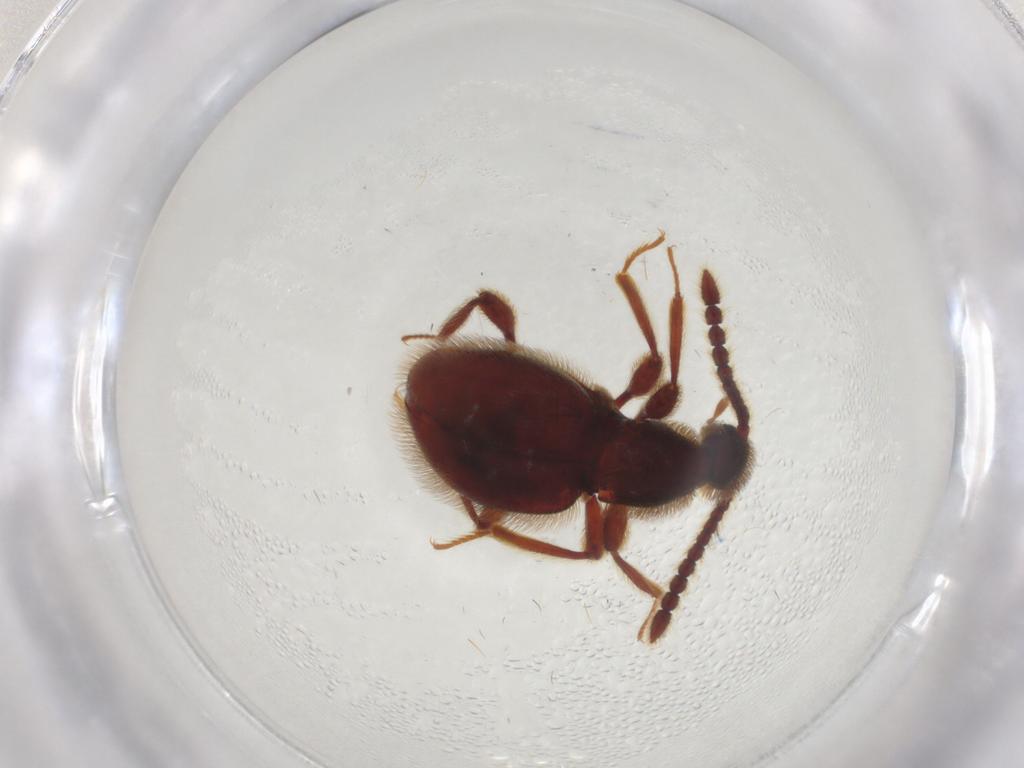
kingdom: Animalia
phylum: Arthropoda
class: Insecta
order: Coleoptera
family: Staphylinidae
